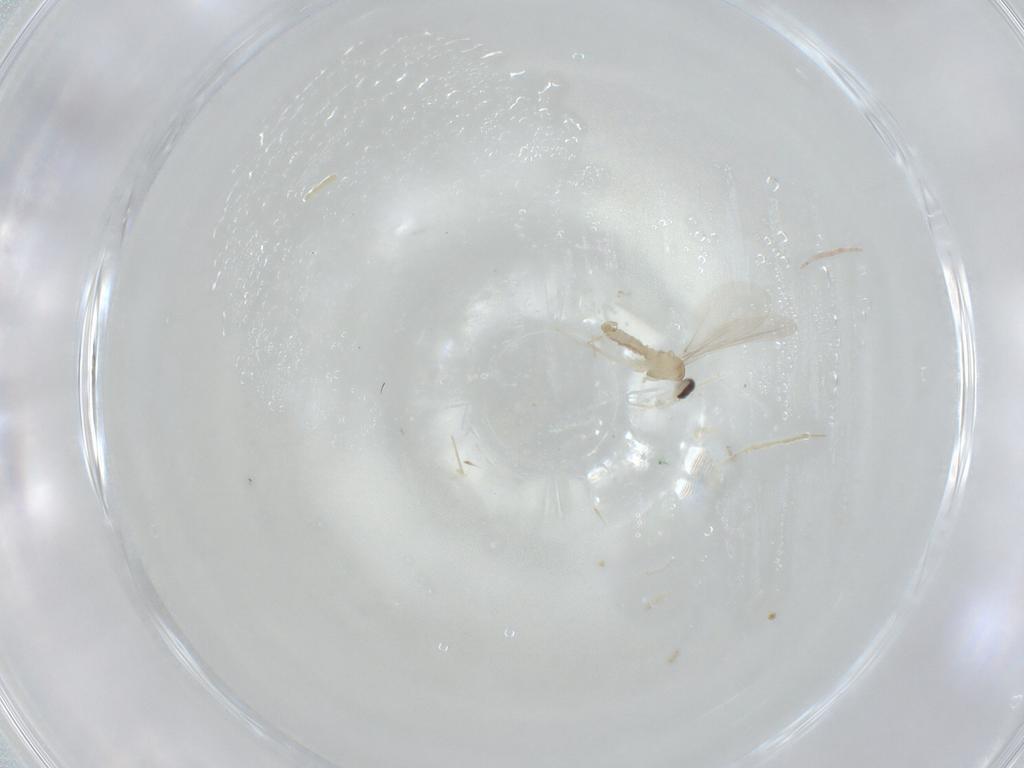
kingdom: Animalia
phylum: Arthropoda
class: Insecta
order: Diptera
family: Cecidomyiidae
